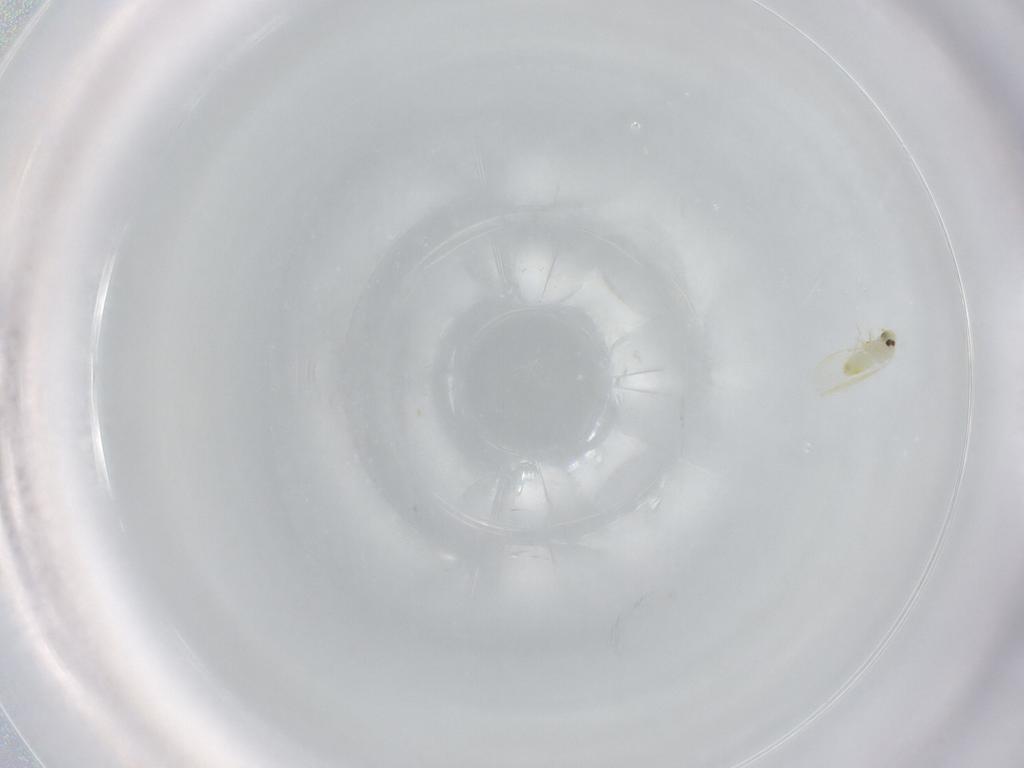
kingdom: Animalia
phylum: Arthropoda
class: Insecta
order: Hemiptera
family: Aleyrodidae
